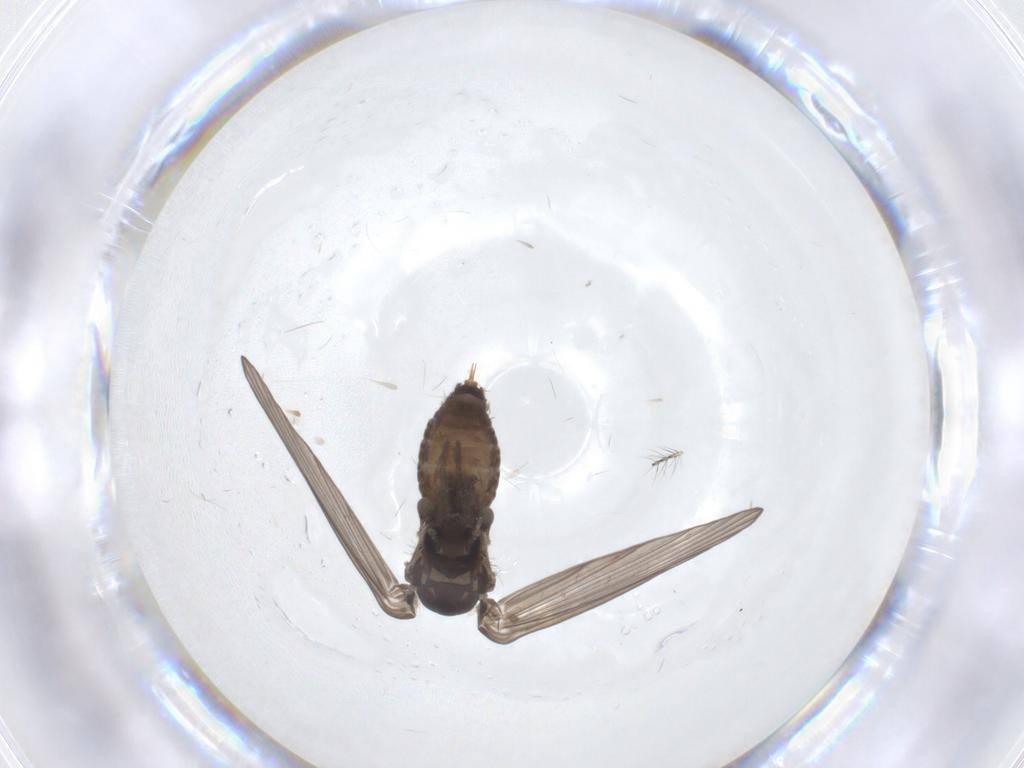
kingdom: Animalia
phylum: Arthropoda
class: Insecta
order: Diptera
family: Psychodidae
